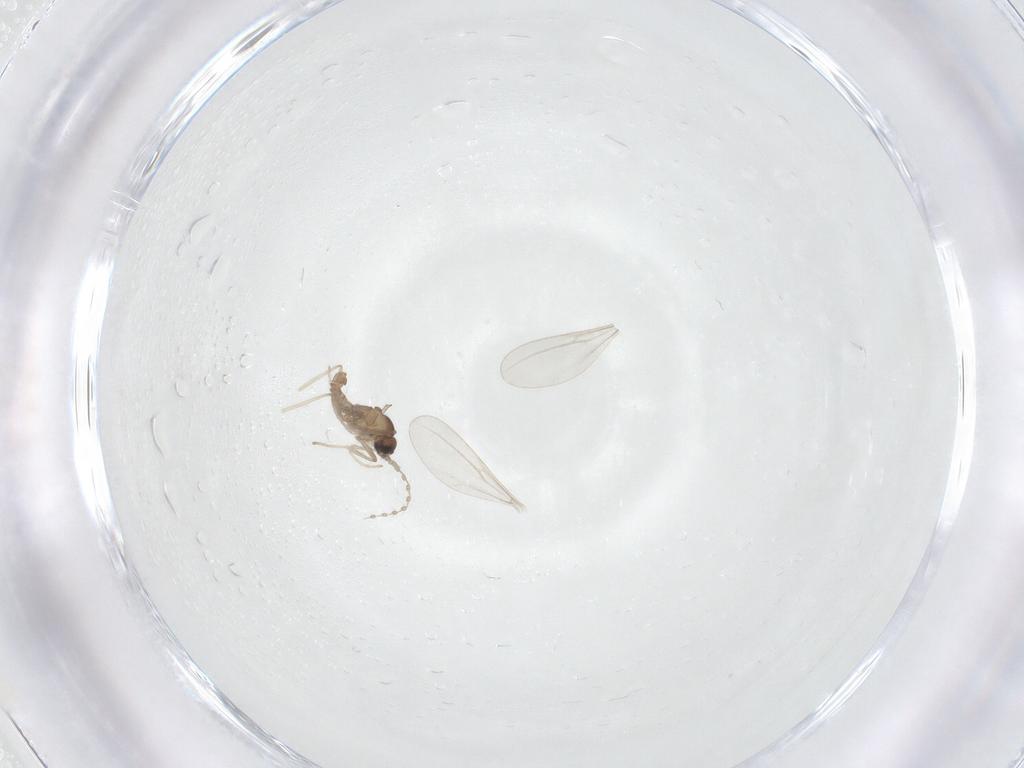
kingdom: Animalia
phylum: Arthropoda
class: Insecta
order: Diptera
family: Cecidomyiidae
